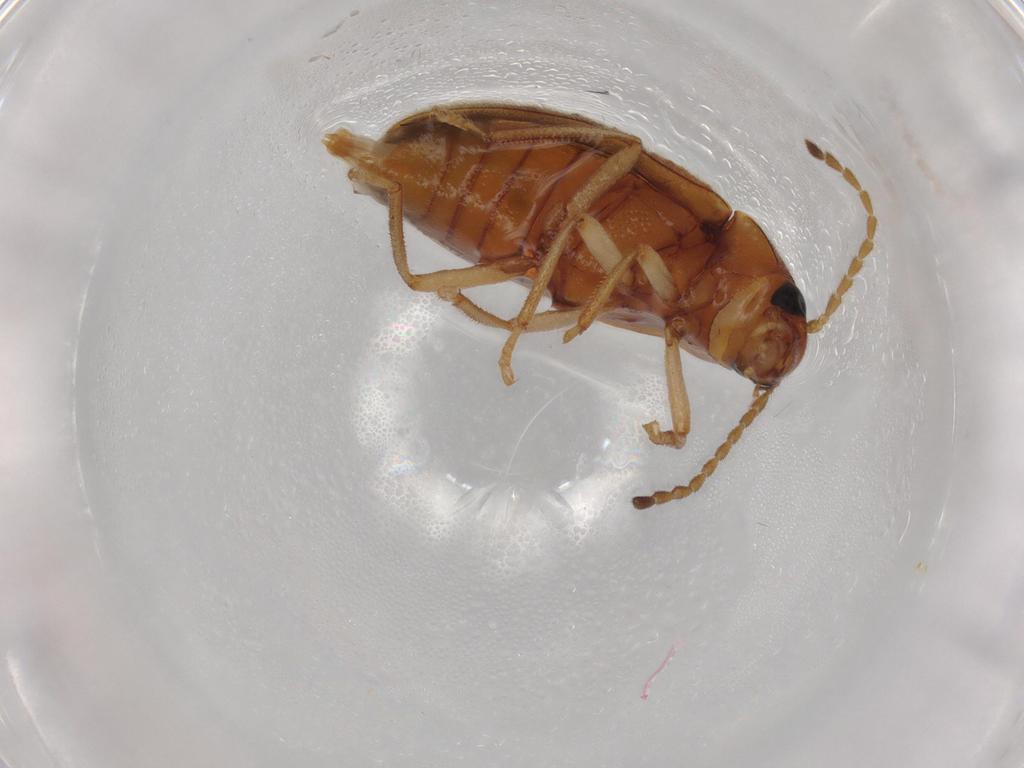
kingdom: Animalia
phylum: Arthropoda
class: Insecta
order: Coleoptera
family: Ptilodactylidae
